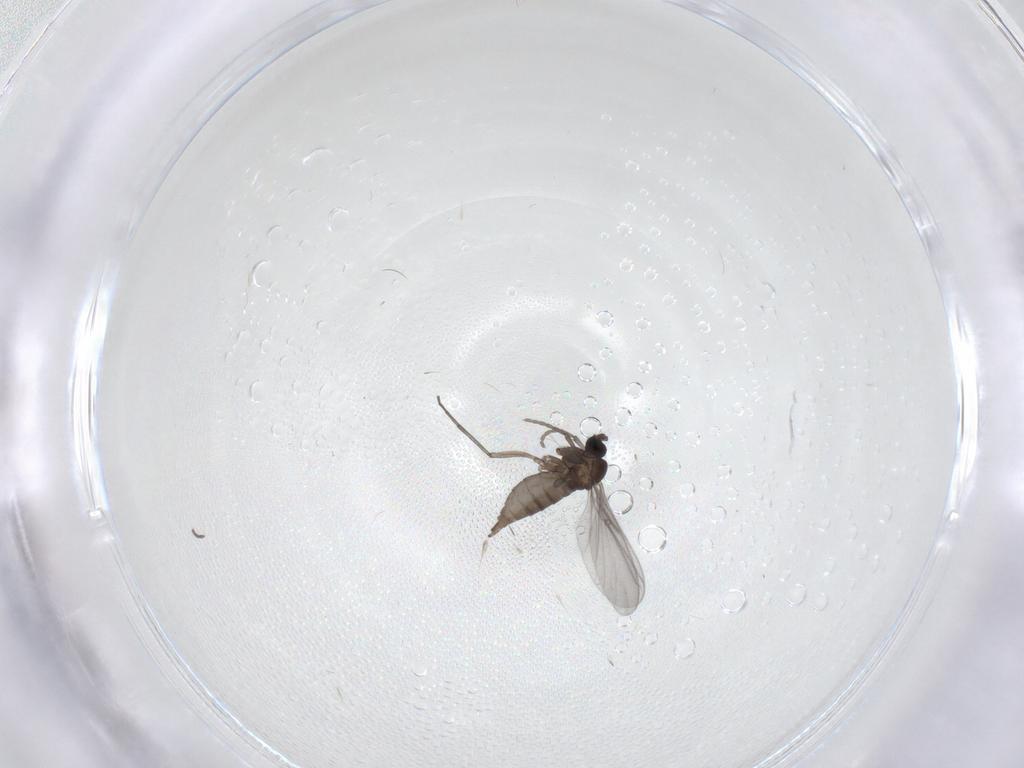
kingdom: Animalia
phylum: Arthropoda
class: Insecta
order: Diptera
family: Sciaridae
